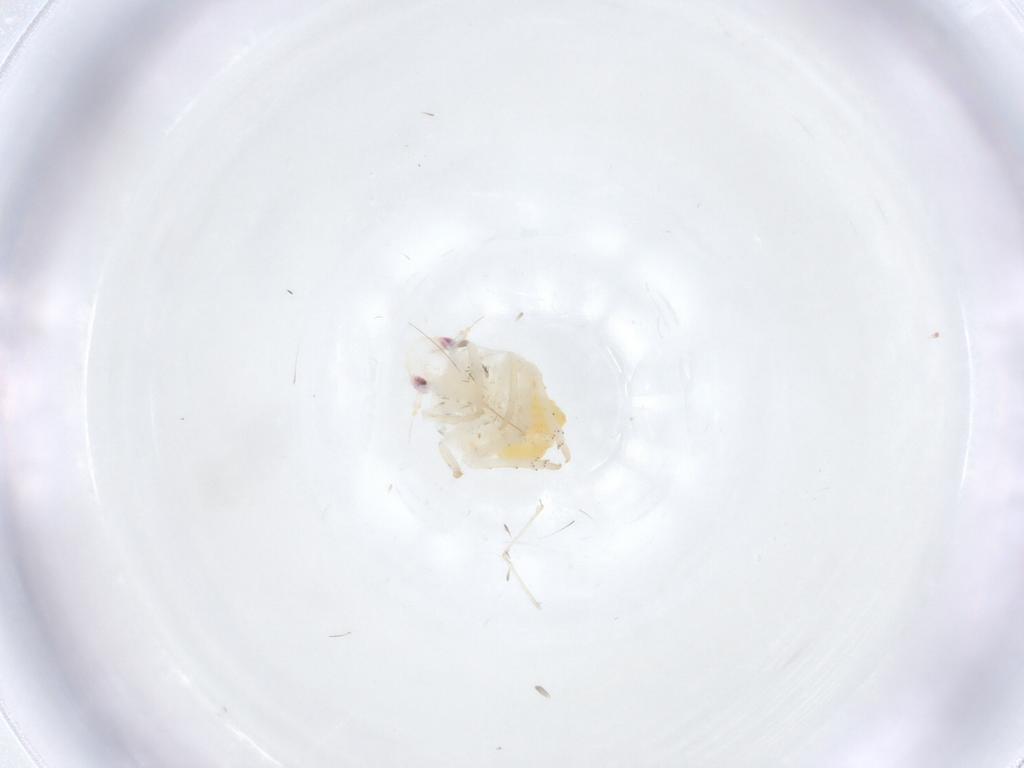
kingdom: Animalia
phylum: Arthropoda
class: Insecta
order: Hemiptera
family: Fulgoroidea_incertae_sedis
